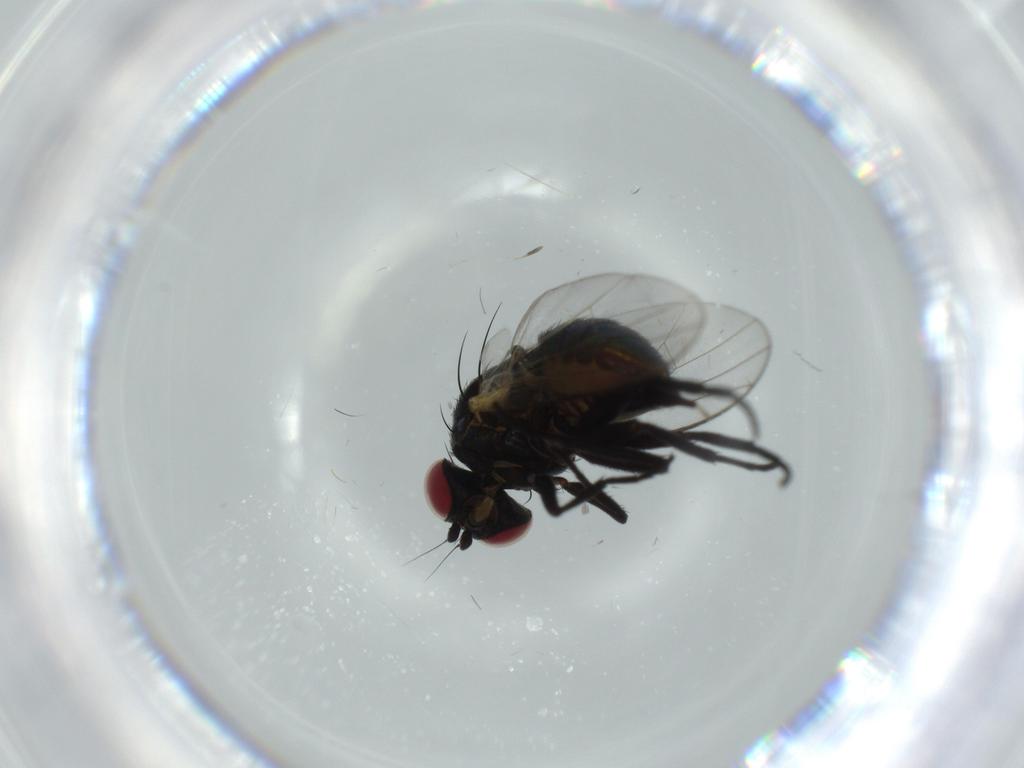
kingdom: Animalia
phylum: Arthropoda
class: Insecta
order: Diptera
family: Agromyzidae
